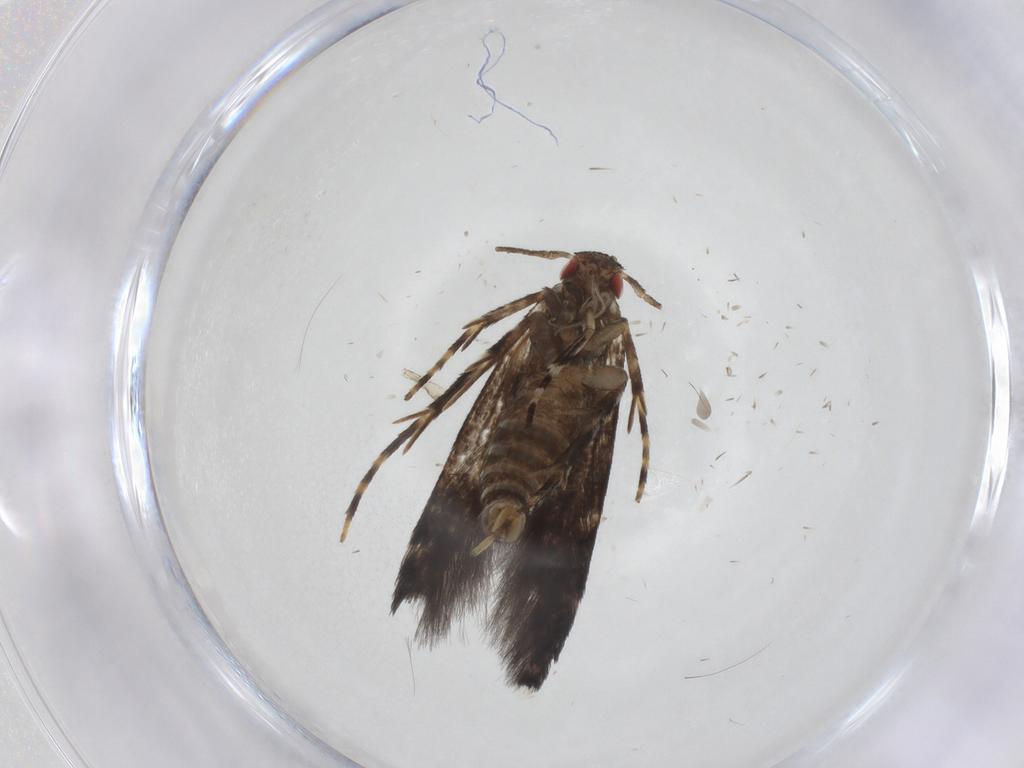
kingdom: Animalia
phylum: Arthropoda
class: Insecta
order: Lepidoptera
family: Cosmopterigidae
